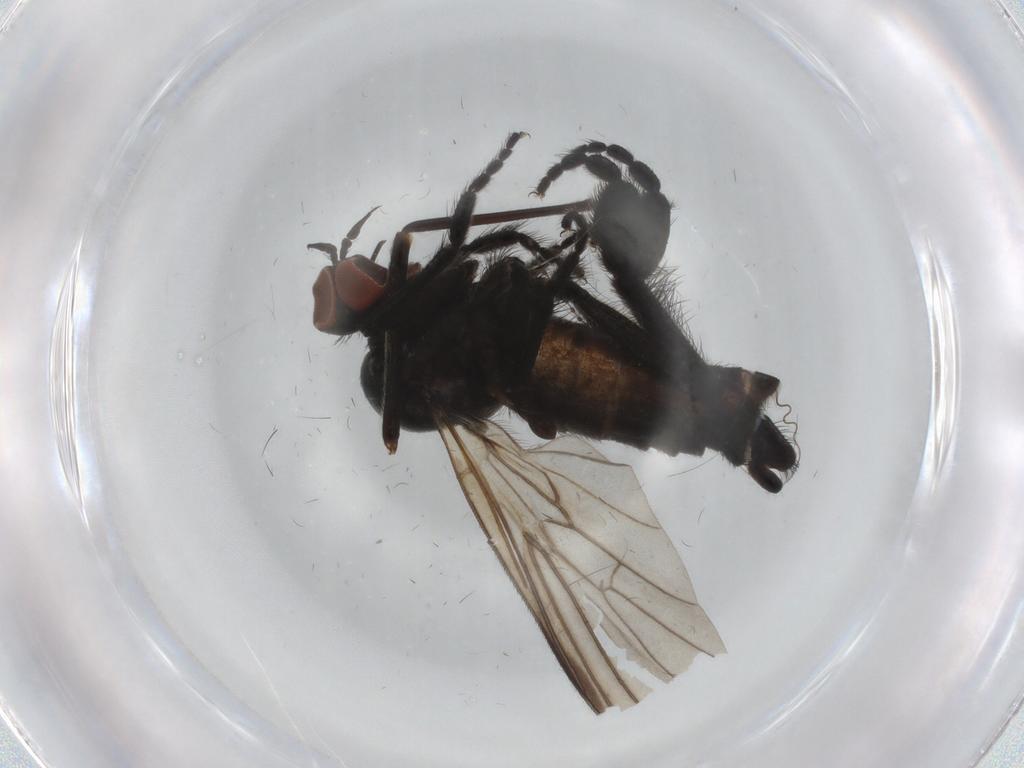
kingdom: Animalia
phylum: Arthropoda
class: Insecta
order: Diptera
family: Empididae
